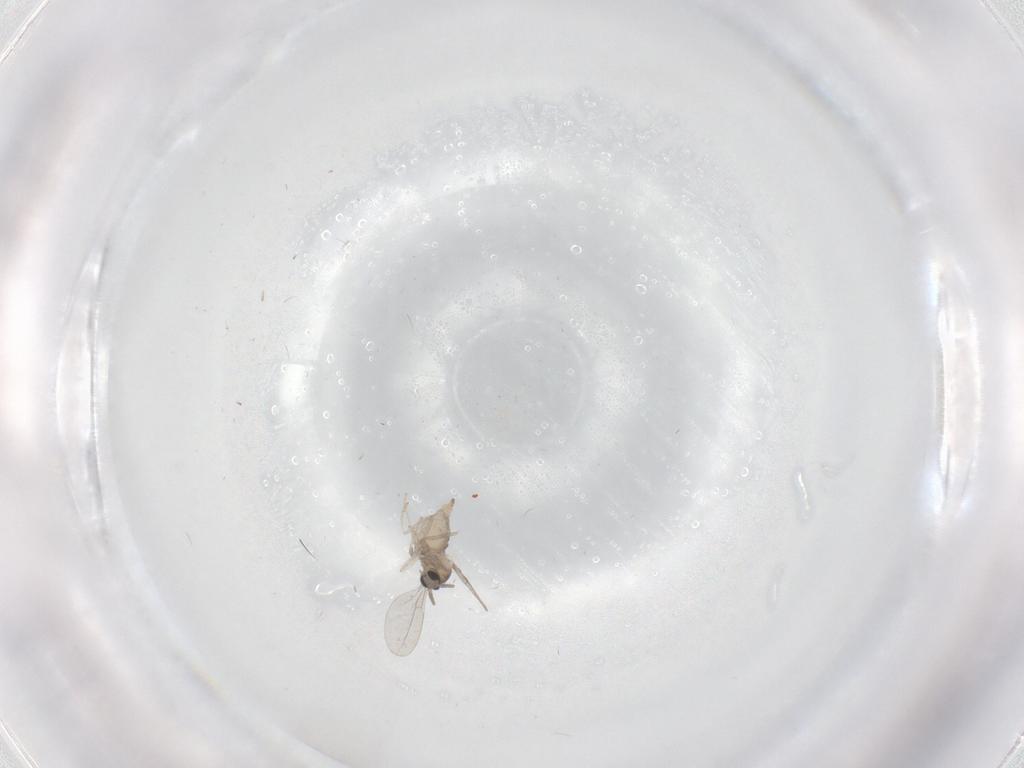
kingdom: Animalia
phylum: Arthropoda
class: Insecta
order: Diptera
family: Cecidomyiidae
